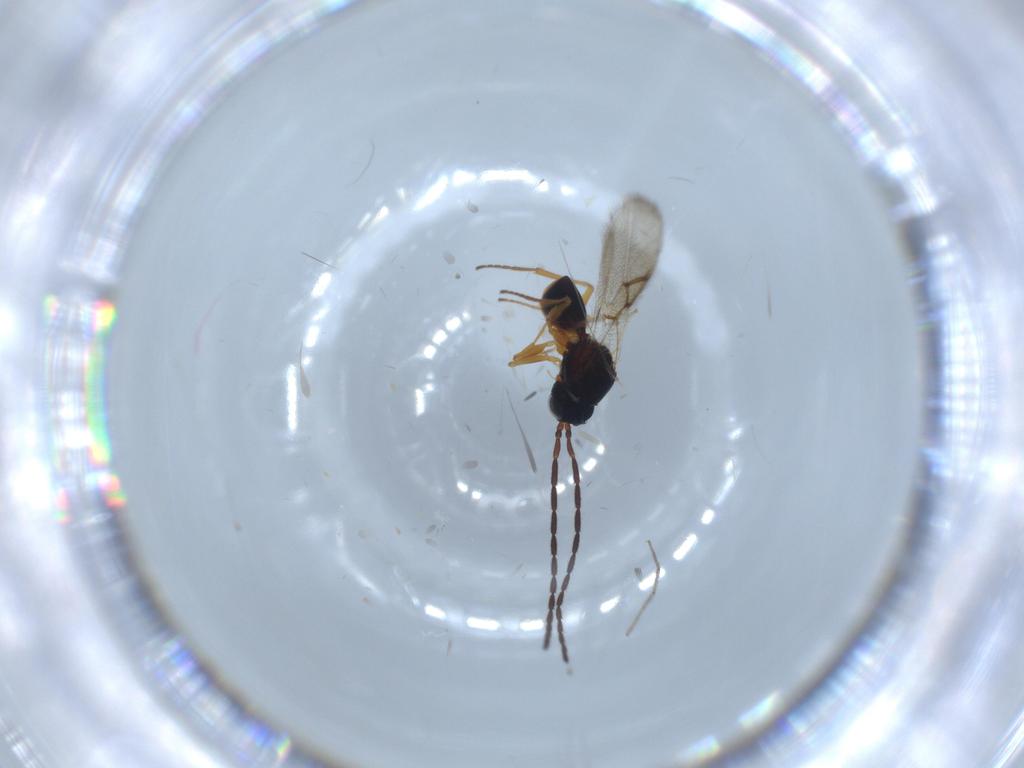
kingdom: Animalia
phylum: Arthropoda
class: Insecta
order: Hymenoptera
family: Figitidae
